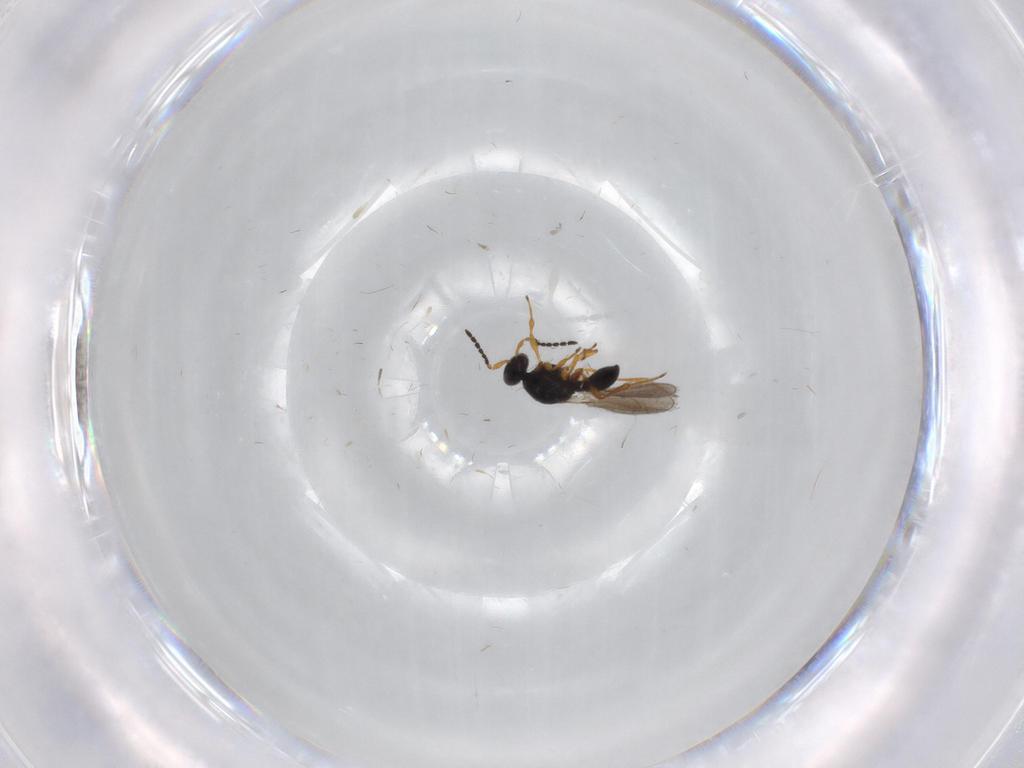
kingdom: Animalia
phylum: Arthropoda
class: Insecta
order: Hymenoptera
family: Platygastridae
